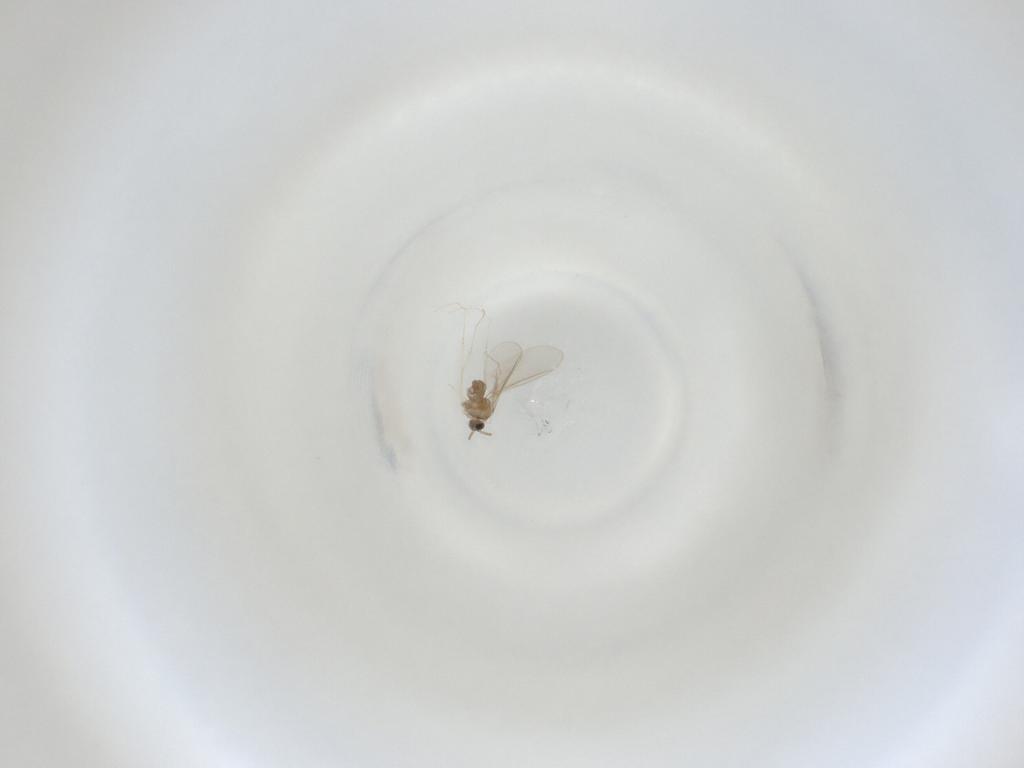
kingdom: Animalia
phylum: Arthropoda
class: Insecta
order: Diptera
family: Cecidomyiidae
